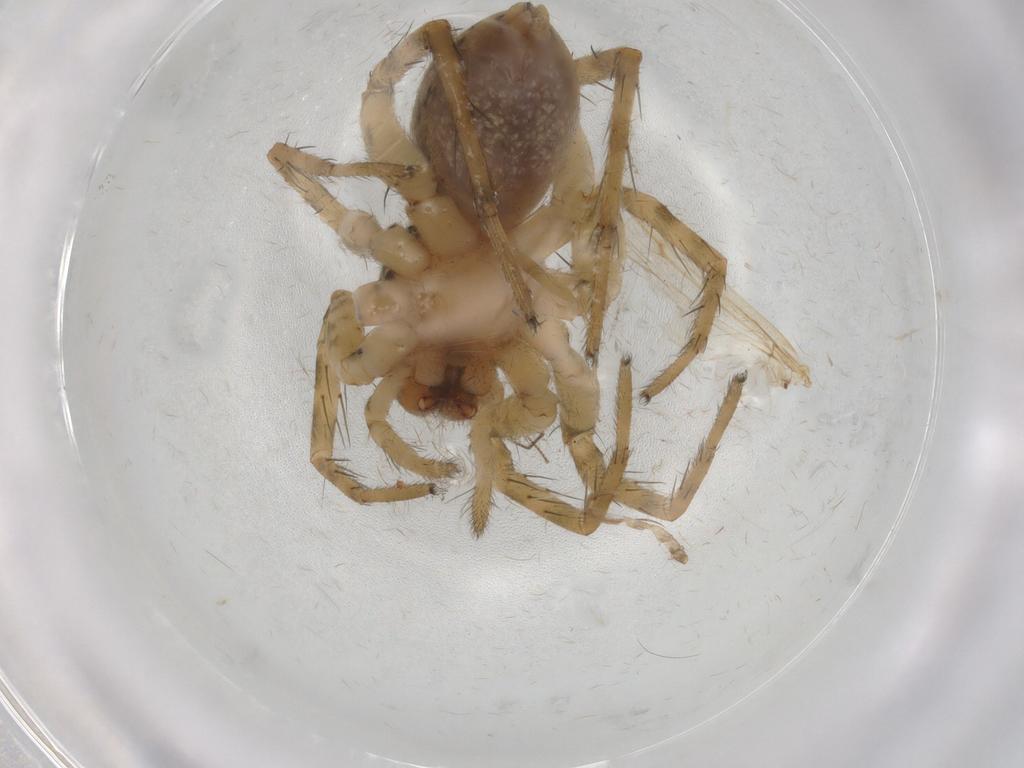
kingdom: Animalia
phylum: Arthropoda
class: Arachnida
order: Araneae
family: Lycosidae
